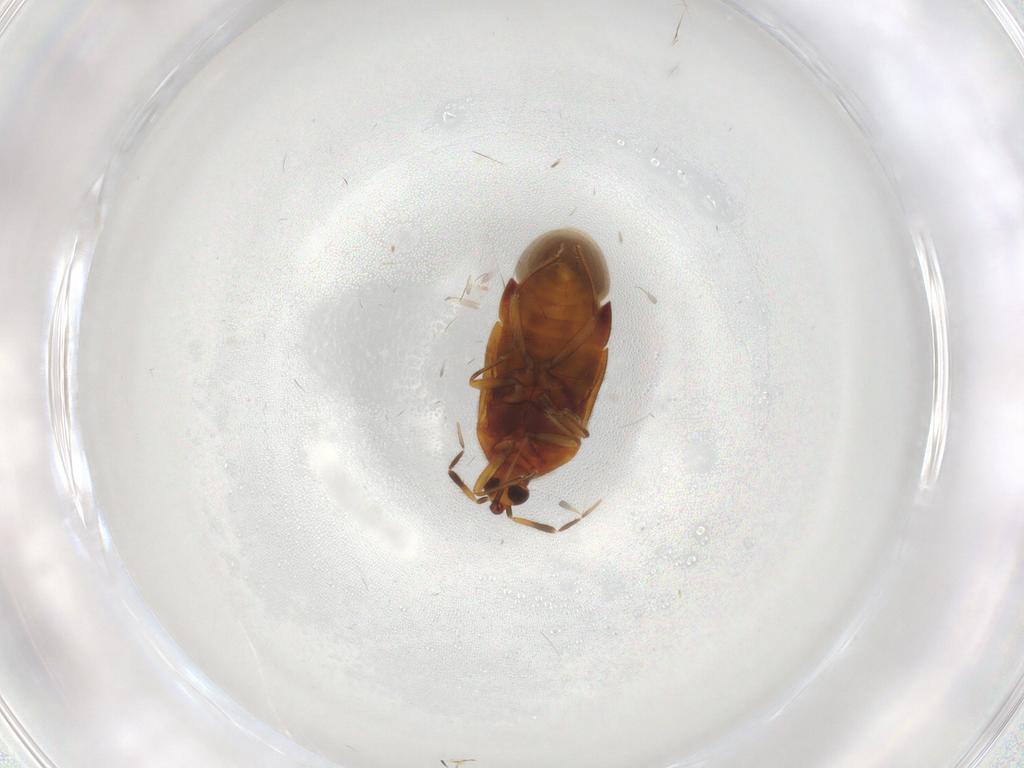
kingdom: Animalia
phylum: Arthropoda
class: Insecta
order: Hemiptera
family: Anthocoridae
